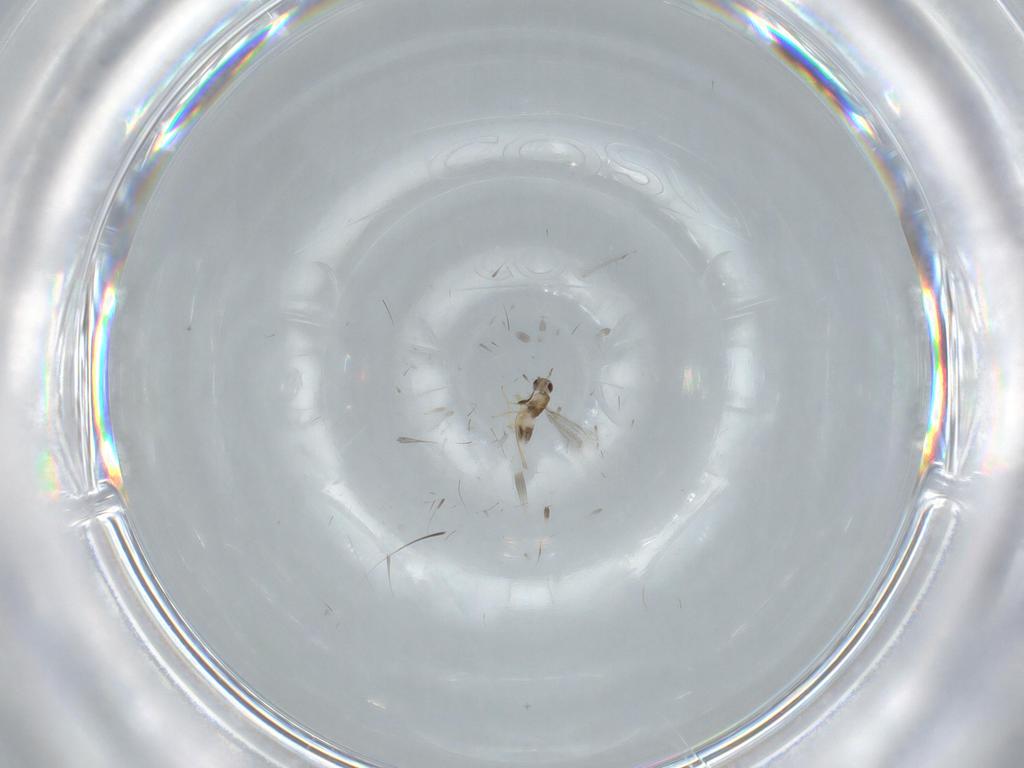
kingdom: Animalia
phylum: Arthropoda
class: Insecta
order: Hymenoptera
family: Mymaridae
